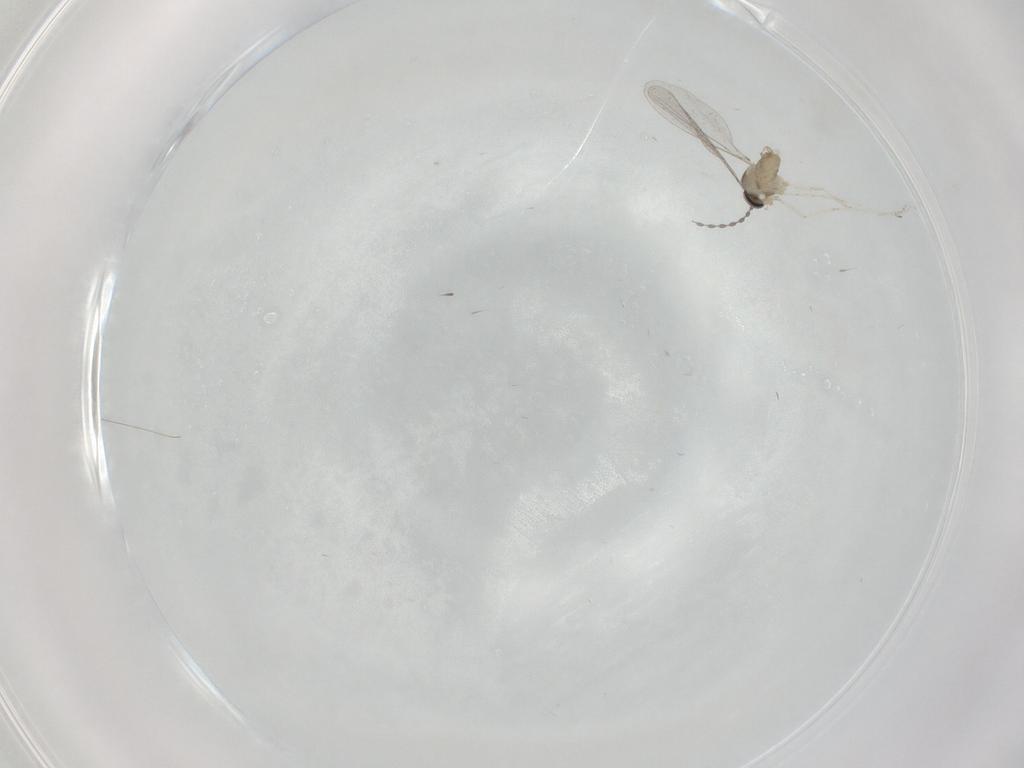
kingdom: Animalia
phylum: Arthropoda
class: Insecta
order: Diptera
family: Cecidomyiidae
